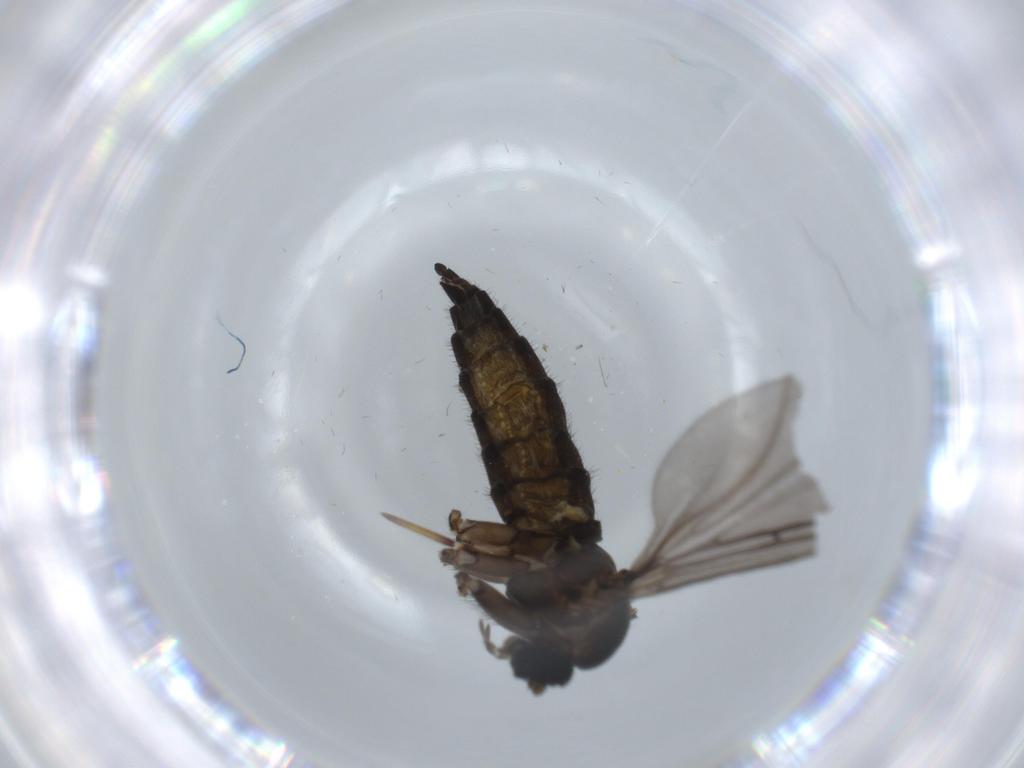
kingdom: Animalia
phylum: Arthropoda
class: Insecta
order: Diptera
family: Sciaridae
